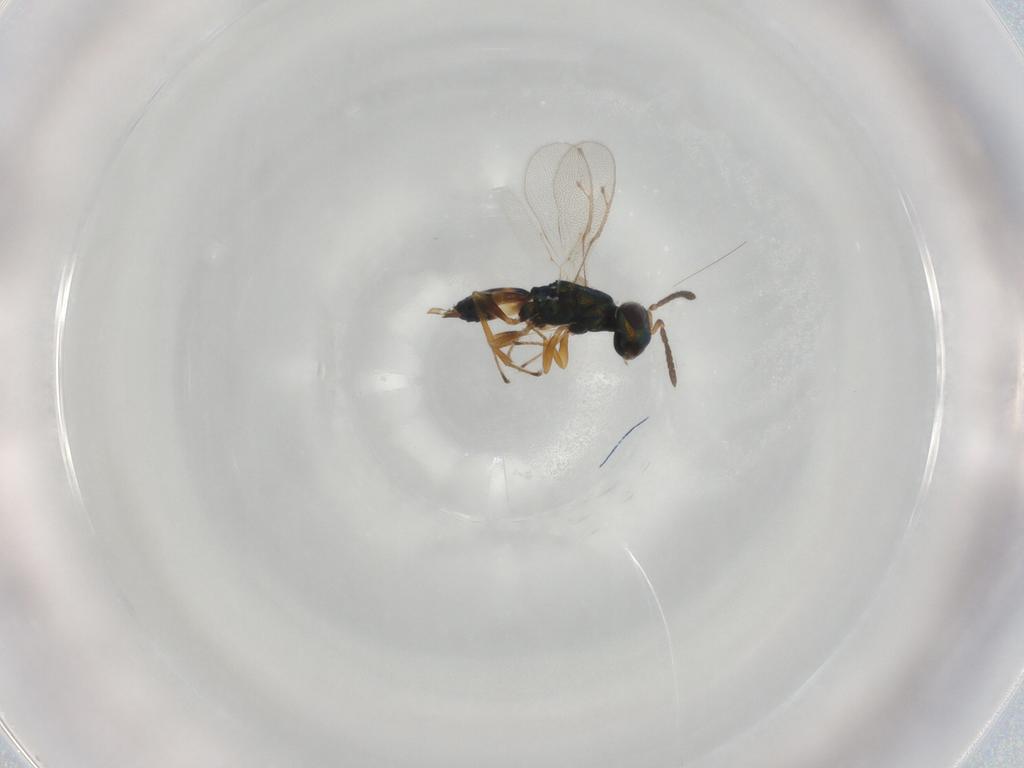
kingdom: Animalia
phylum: Arthropoda
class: Insecta
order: Hymenoptera
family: Pteromalidae
